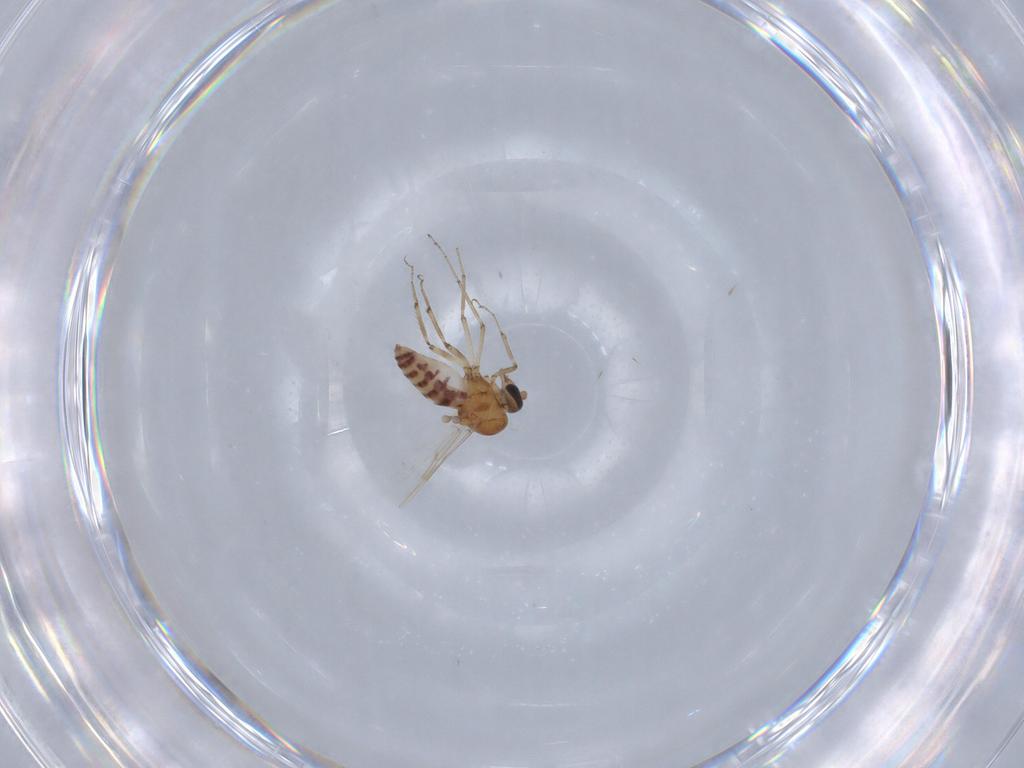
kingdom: Animalia
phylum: Arthropoda
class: Insecta
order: Diptera
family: Ceratopogonidae
